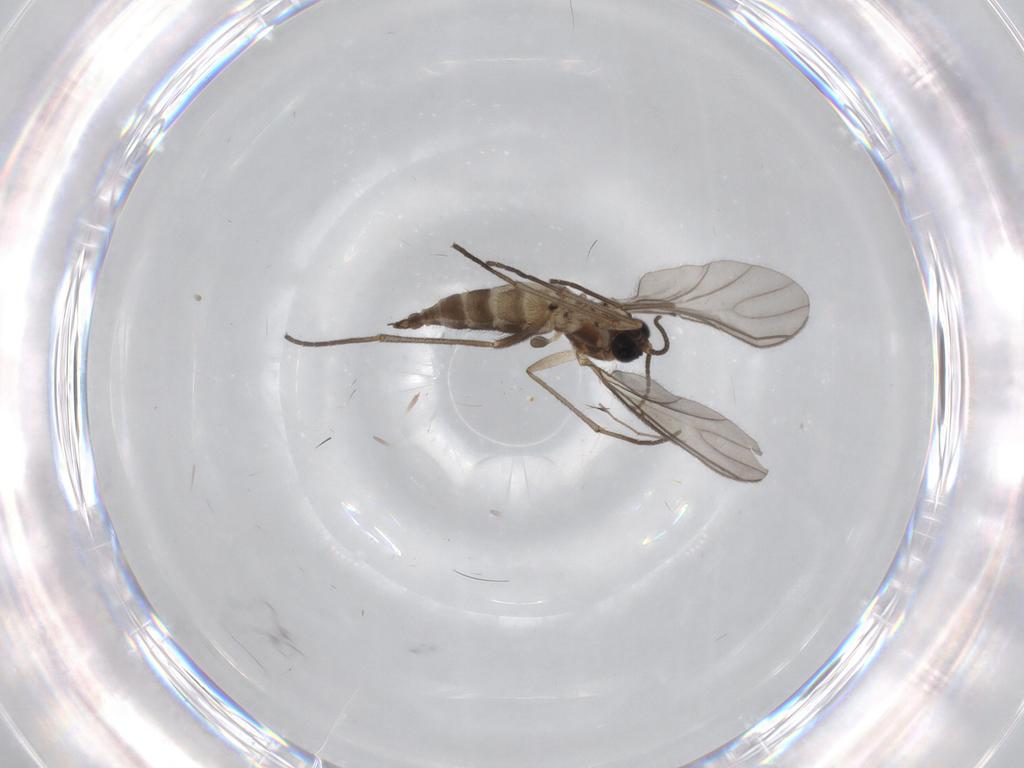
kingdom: Animalia
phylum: Arthropoda
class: Insecta
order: Diptera
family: Sciaridae
